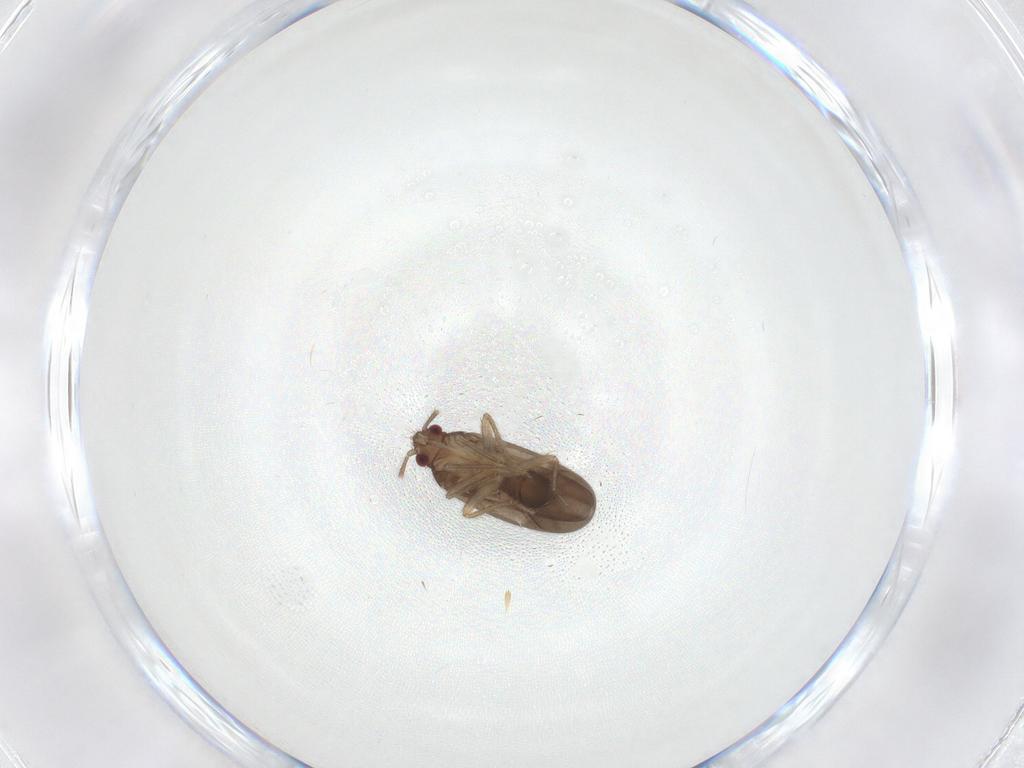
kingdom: Animalia
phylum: Arthropoda
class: Insecta
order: Hemiptera
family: Ceratocombidae
